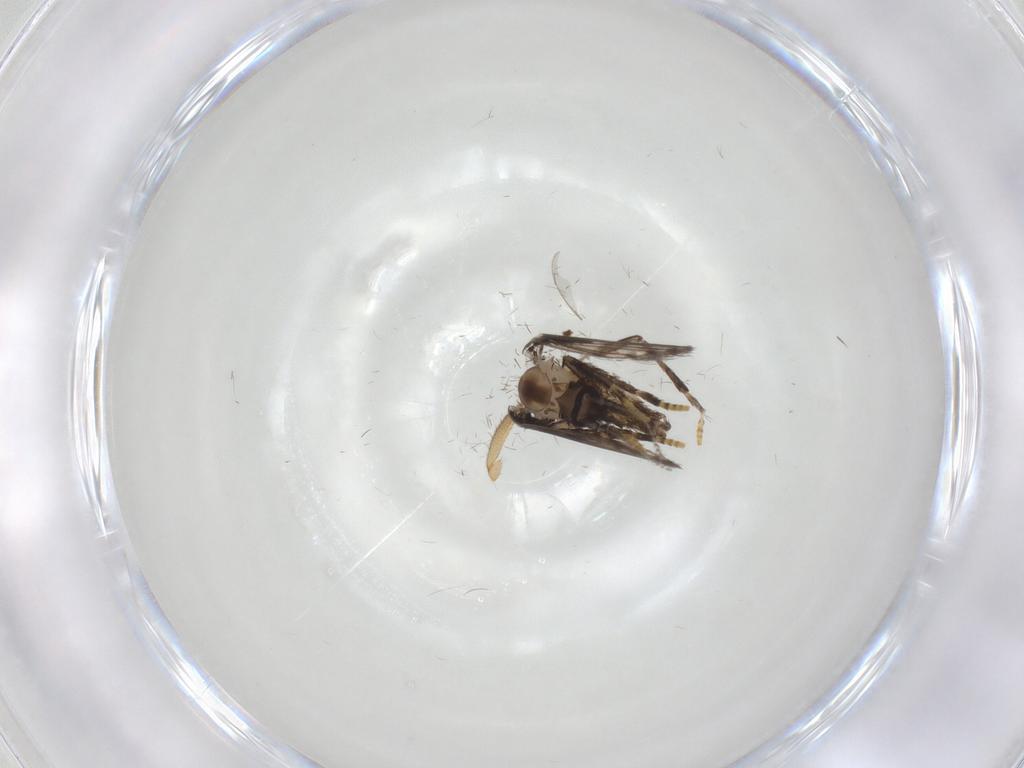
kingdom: Animalia
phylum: Arthropoda
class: Insecta
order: Diptera
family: Psychodidae
